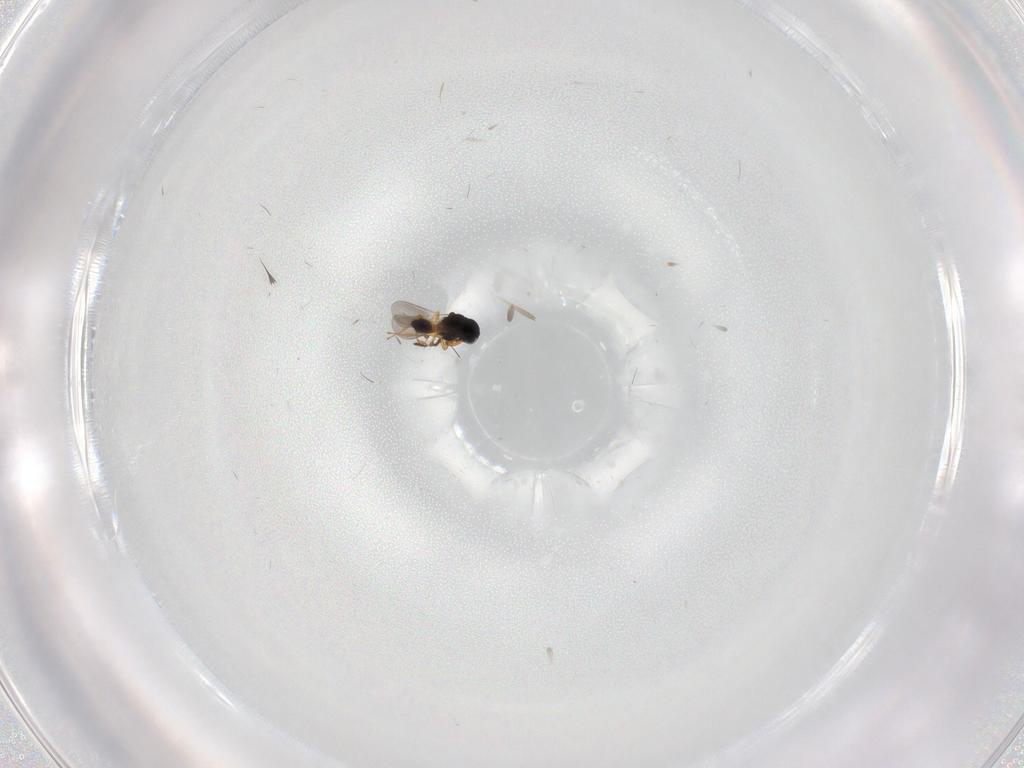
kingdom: Animalia
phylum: Arthropoda
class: Insecta
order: Hymenoptera
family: Platygastridae
